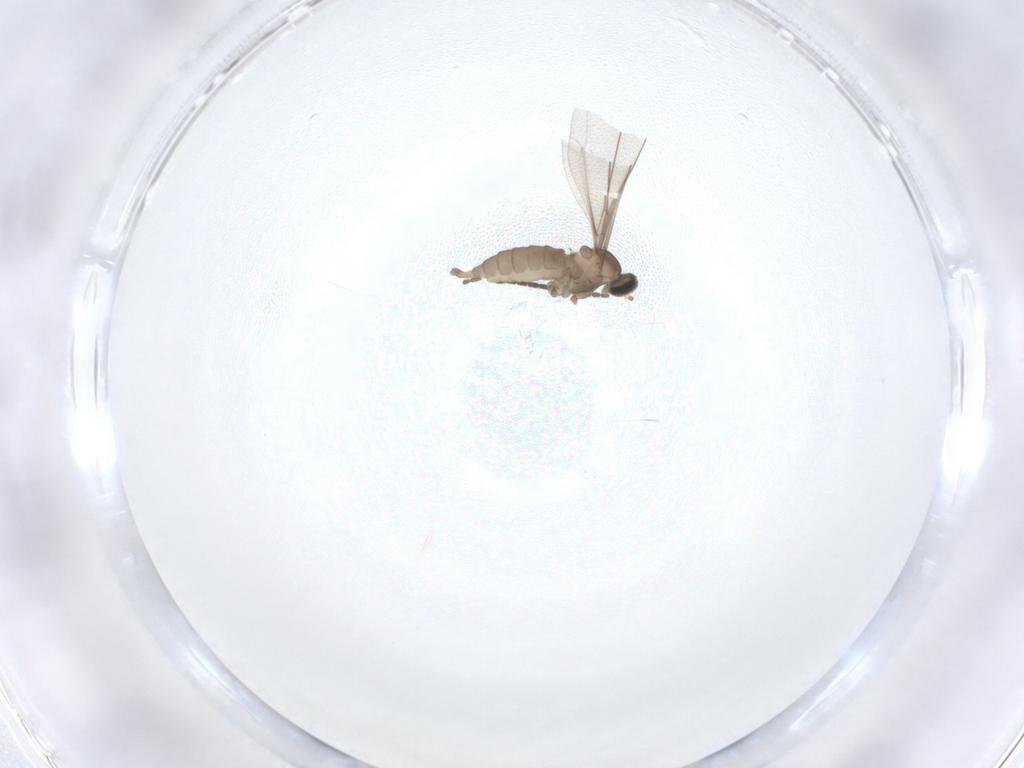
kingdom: Animalia
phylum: Arthropoda
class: Insecta
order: Diptera
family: Sciaridae
